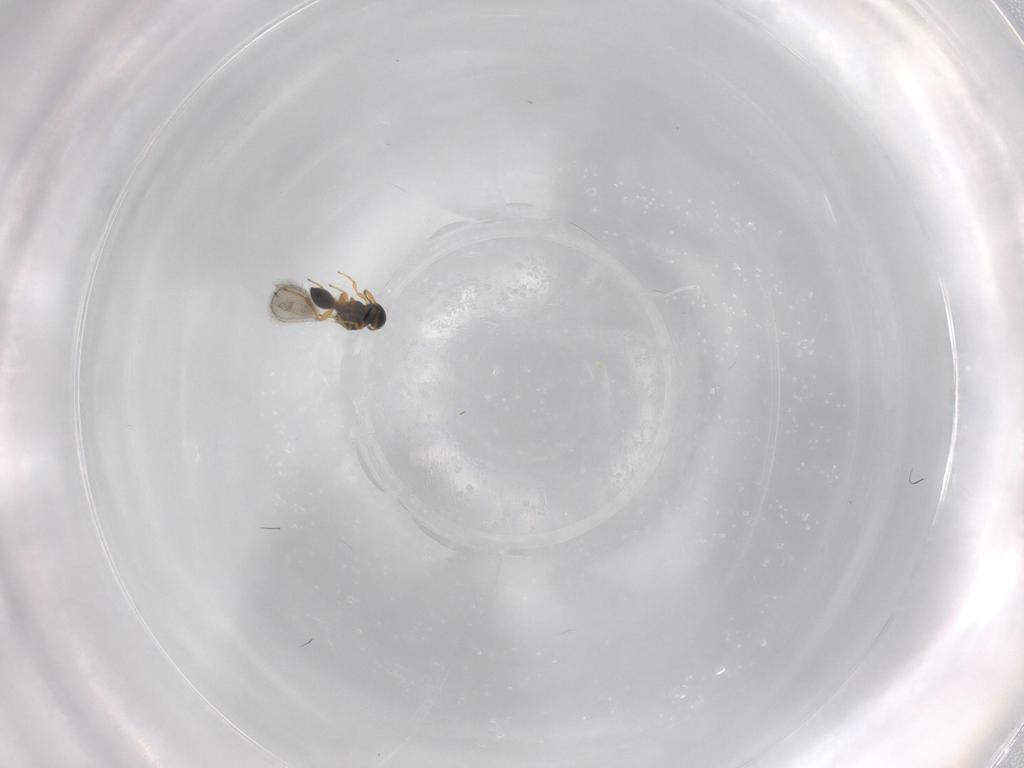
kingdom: Animalia
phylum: Arthropoda
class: Insecta
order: Hymenoptera
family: Platygastridae
